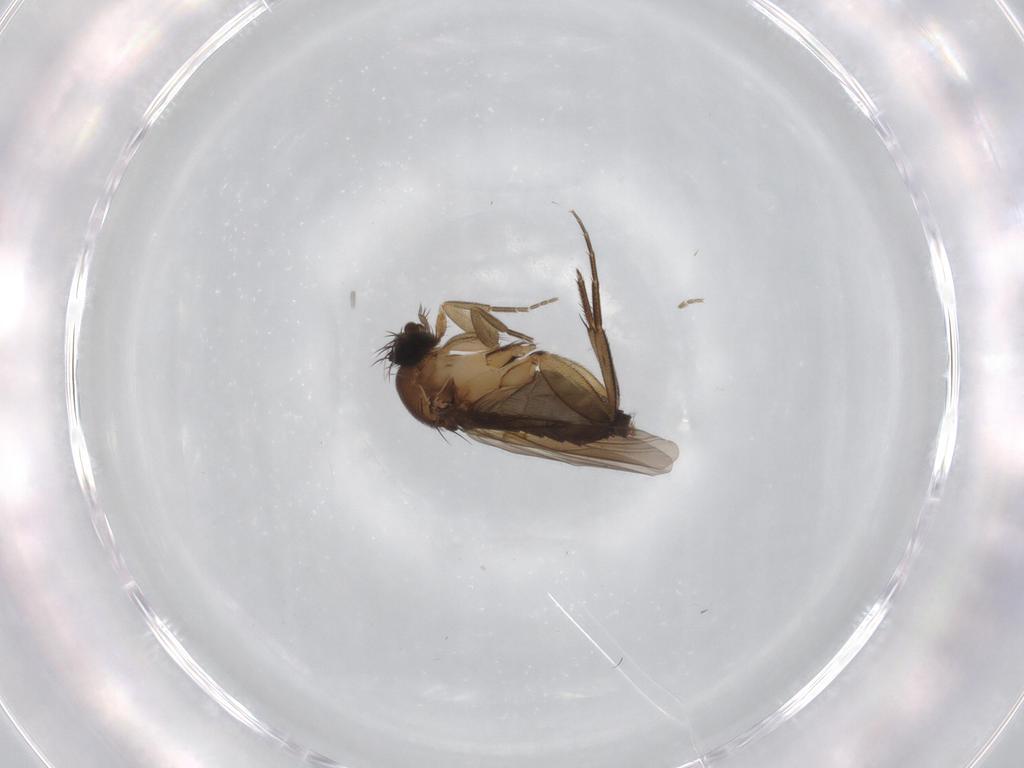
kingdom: Animalia
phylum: Arthropoda
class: Insecta
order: Diptera
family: Phoridae
